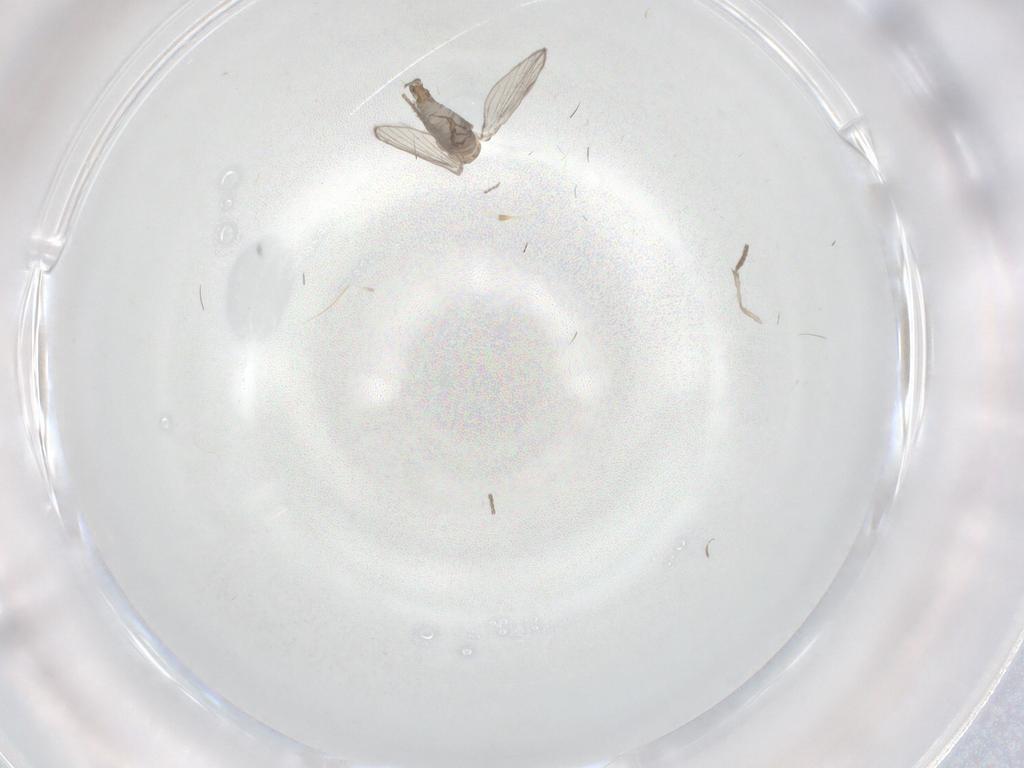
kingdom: Animalia
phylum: Arthropoda
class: Insecta
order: Diptera
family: Psychodidae
